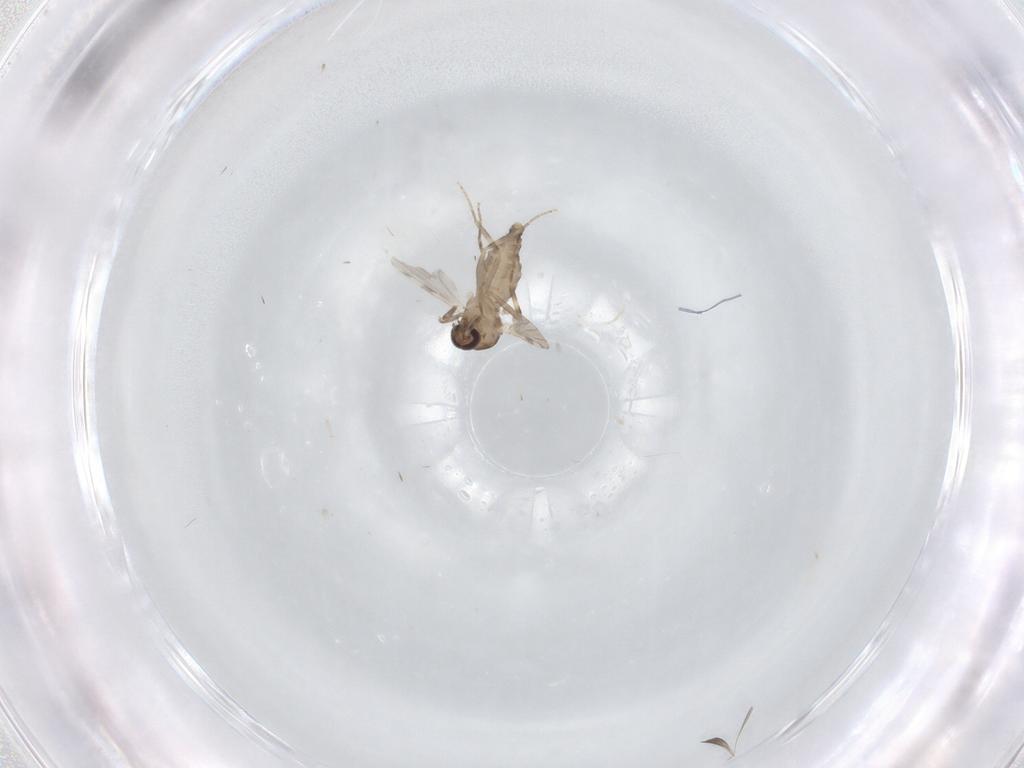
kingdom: Animalia
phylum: Arthropoda
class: Insecta
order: Diptera
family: Ceratopogonidae
